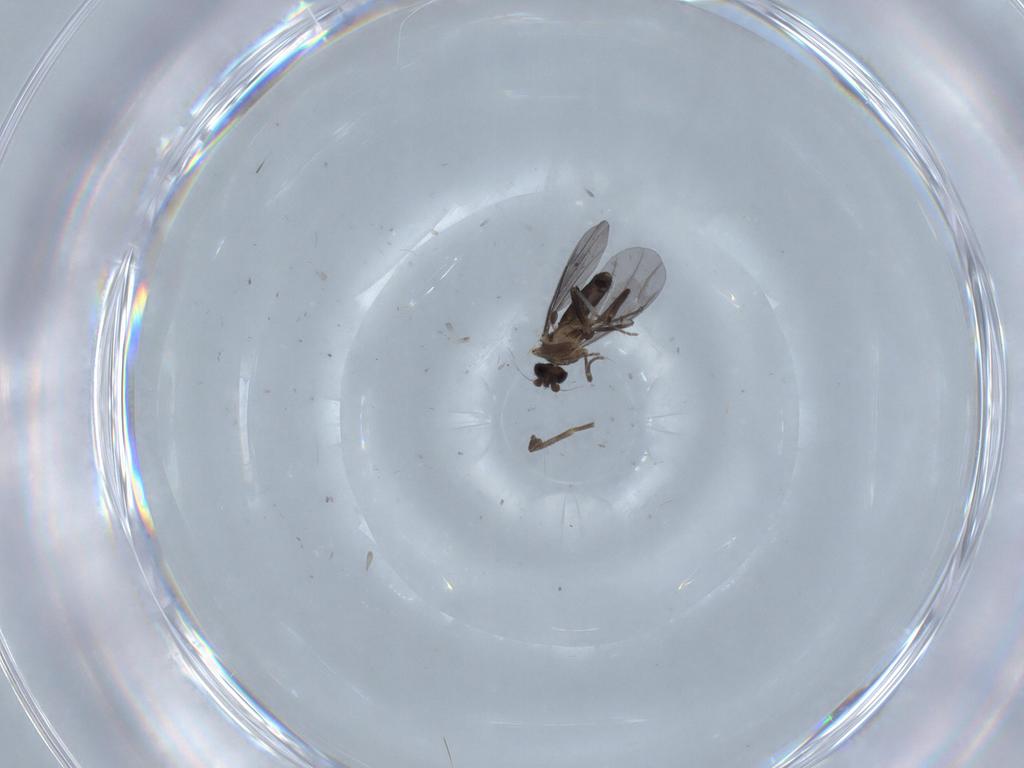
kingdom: Animalia
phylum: Arthropoda
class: Insecta
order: Diptera
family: Phoridae
